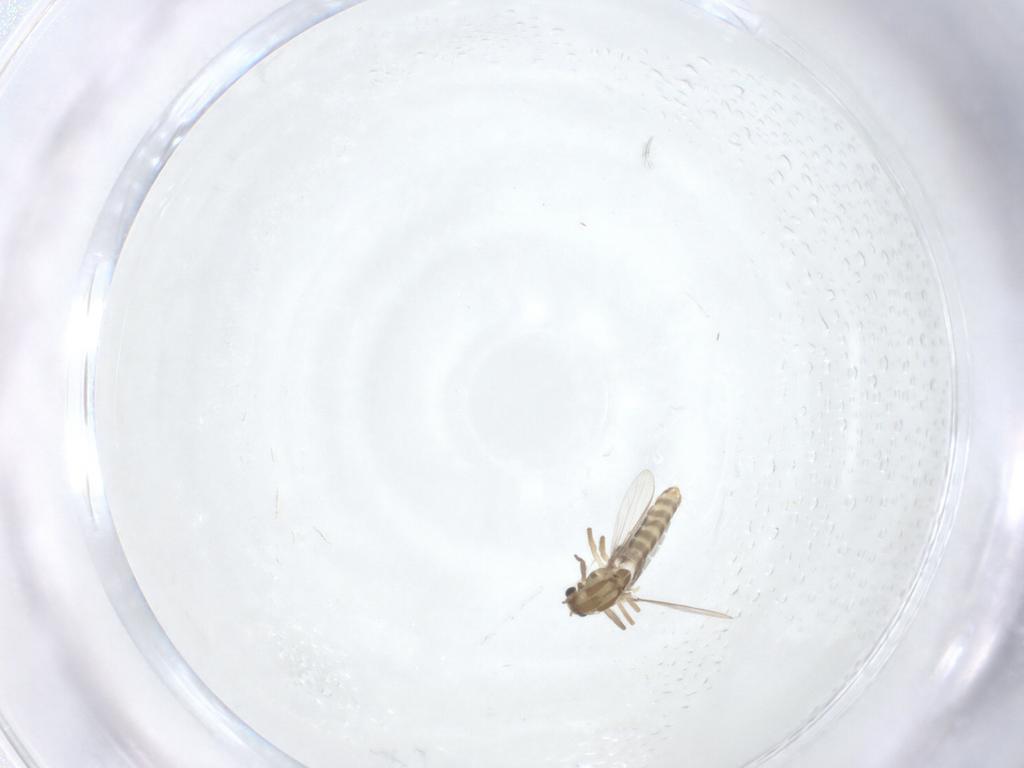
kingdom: Animalia
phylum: Arthropoda
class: Insecta
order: Diptera
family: Chironomidae
